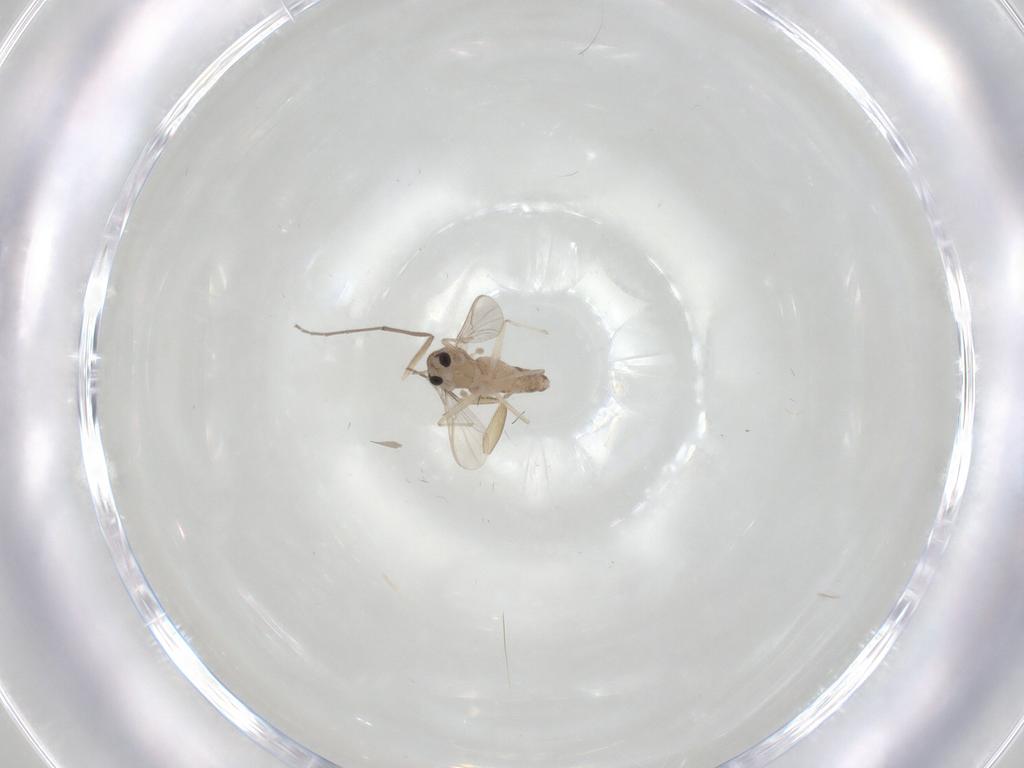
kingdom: Animalia
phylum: Arthropoda
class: Insecta
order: Diptera
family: Chironomidae
